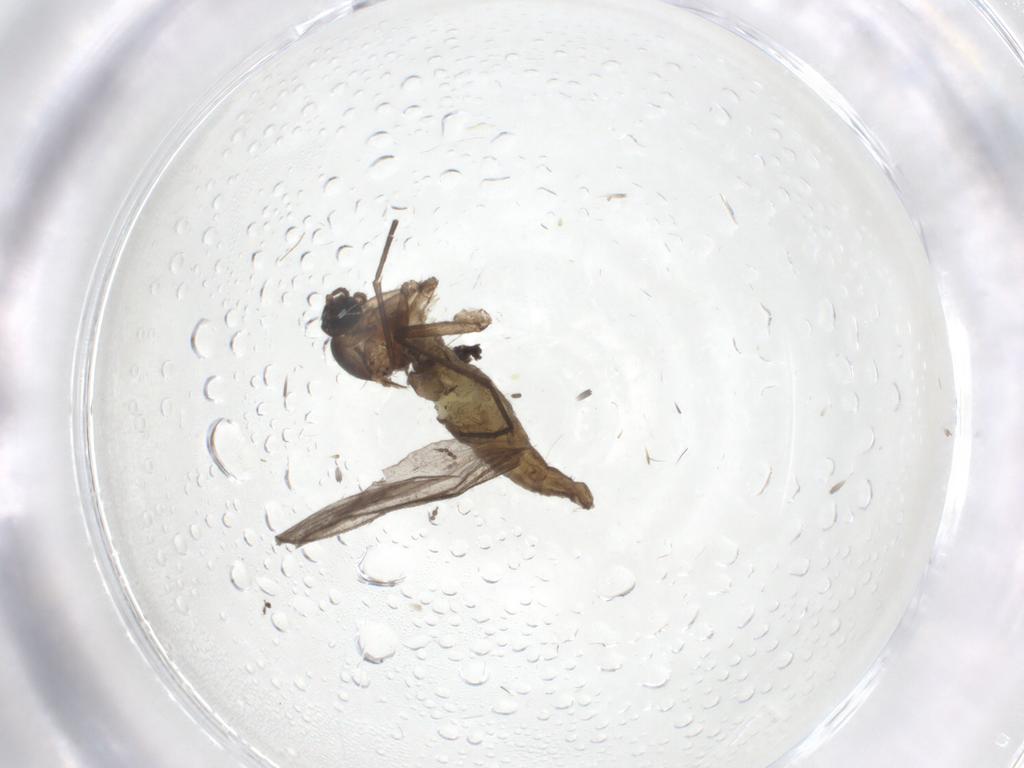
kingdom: Animalia
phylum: Arthropoda
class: Insecta
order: Diptera
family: Cecidomyiidae
